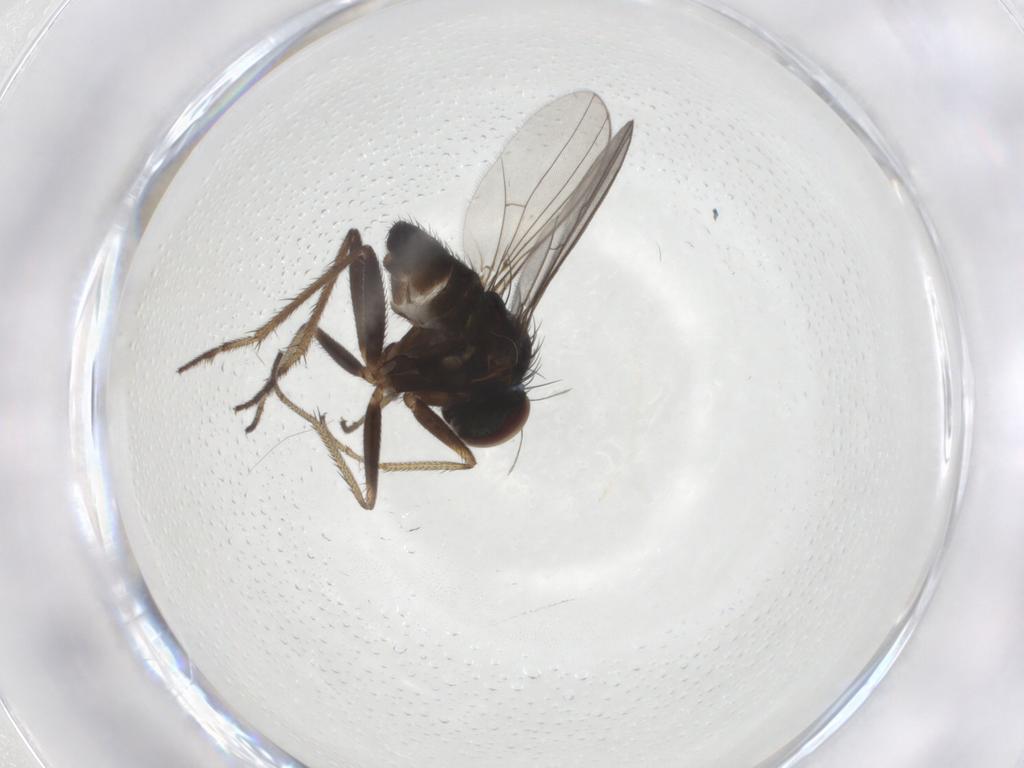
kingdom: Animalia
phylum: Arthropoda
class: Insecta
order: Diptera
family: Dolichopodidae
